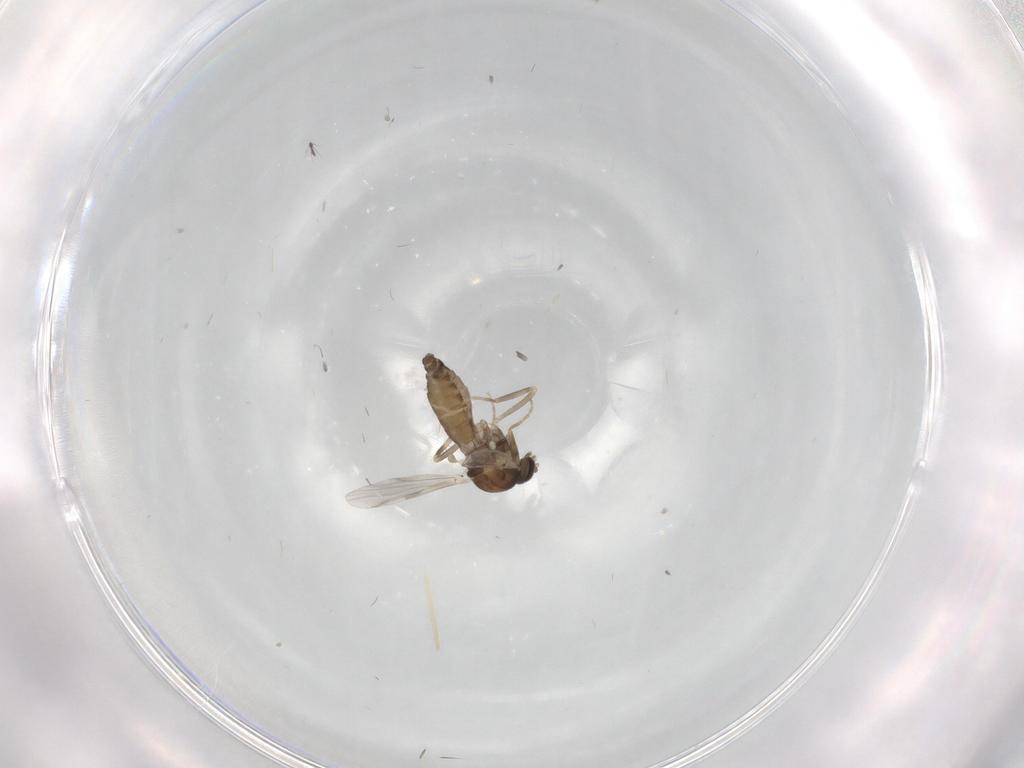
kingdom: Animalia
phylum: Arthropoda
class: Insecta
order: Diptera
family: Ceratopogonidae
